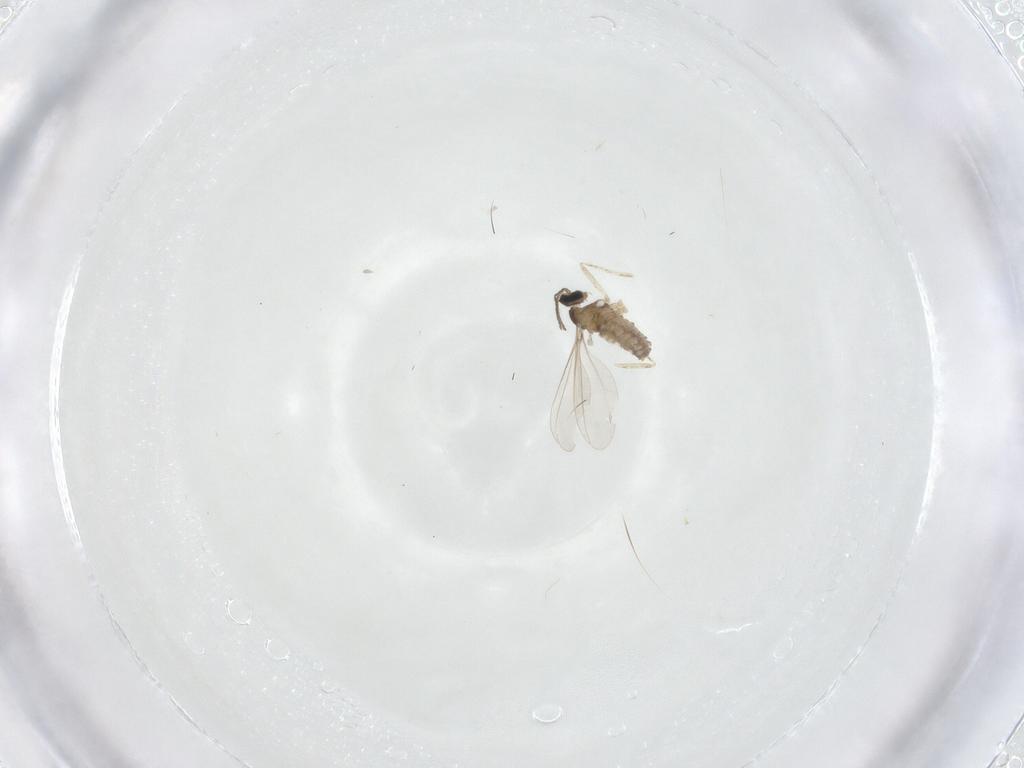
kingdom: Animalia
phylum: Arthropoda
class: Insecta
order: Diptera
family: Cecidomyiidae
